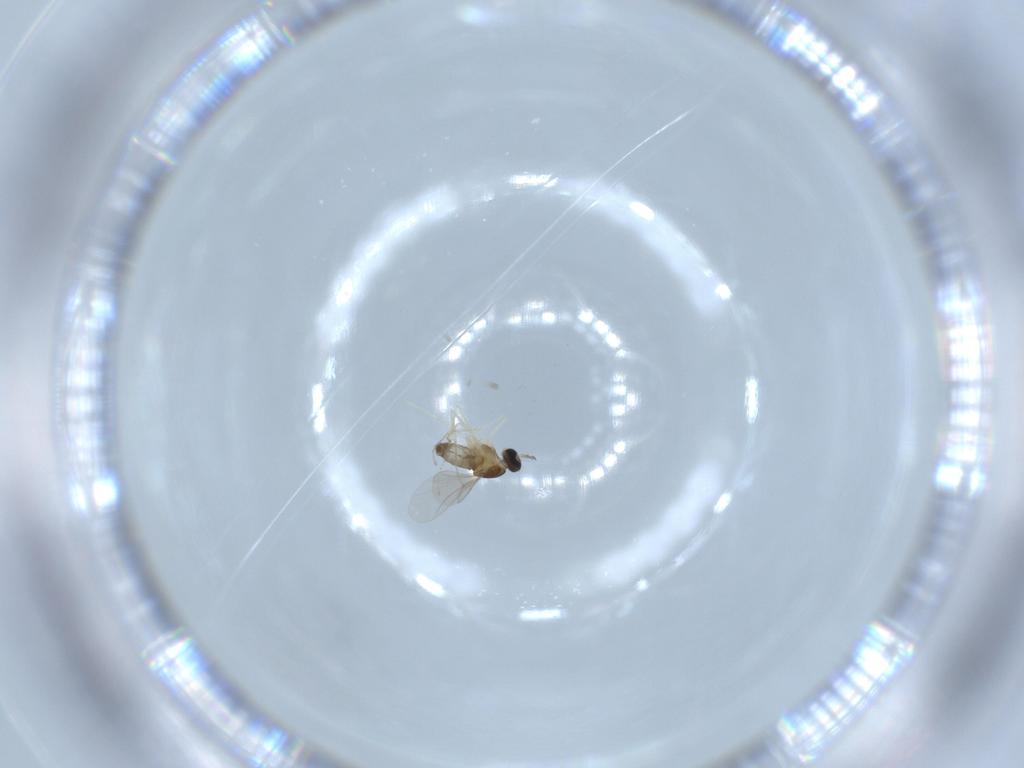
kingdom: Animalia
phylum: Arthropoda
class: Insecta
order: Diptera
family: Cecidomyiidae
